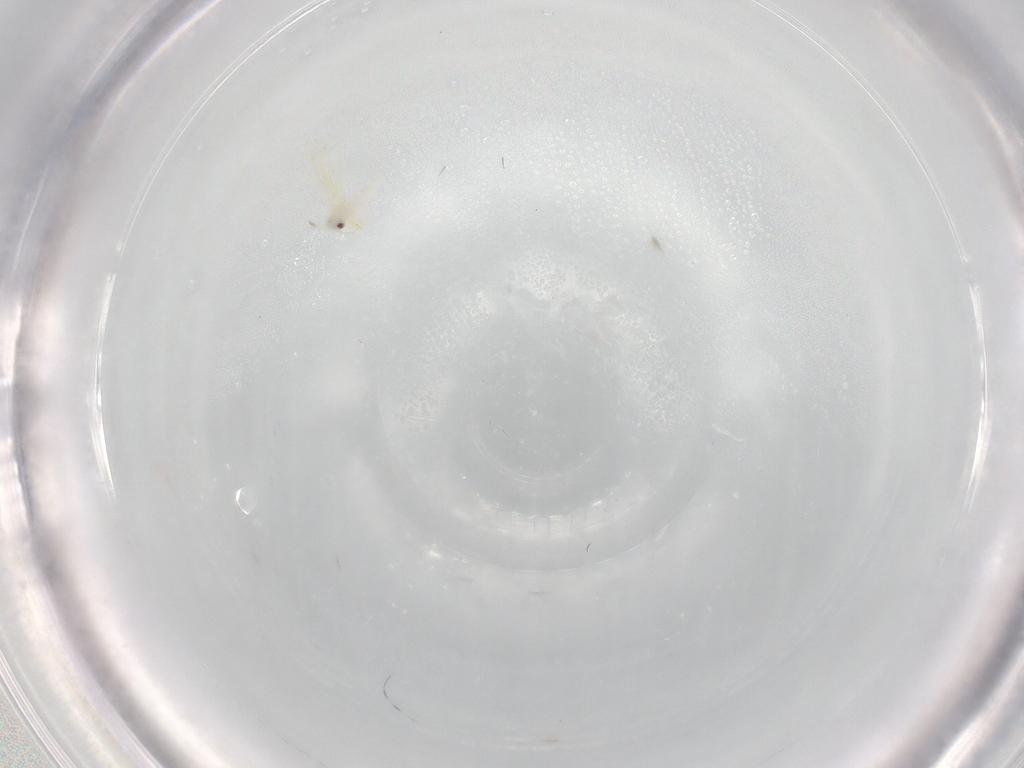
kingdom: Animalia
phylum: Arthropoda
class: Insecta
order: Hemiptera
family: Aleyrodidae
